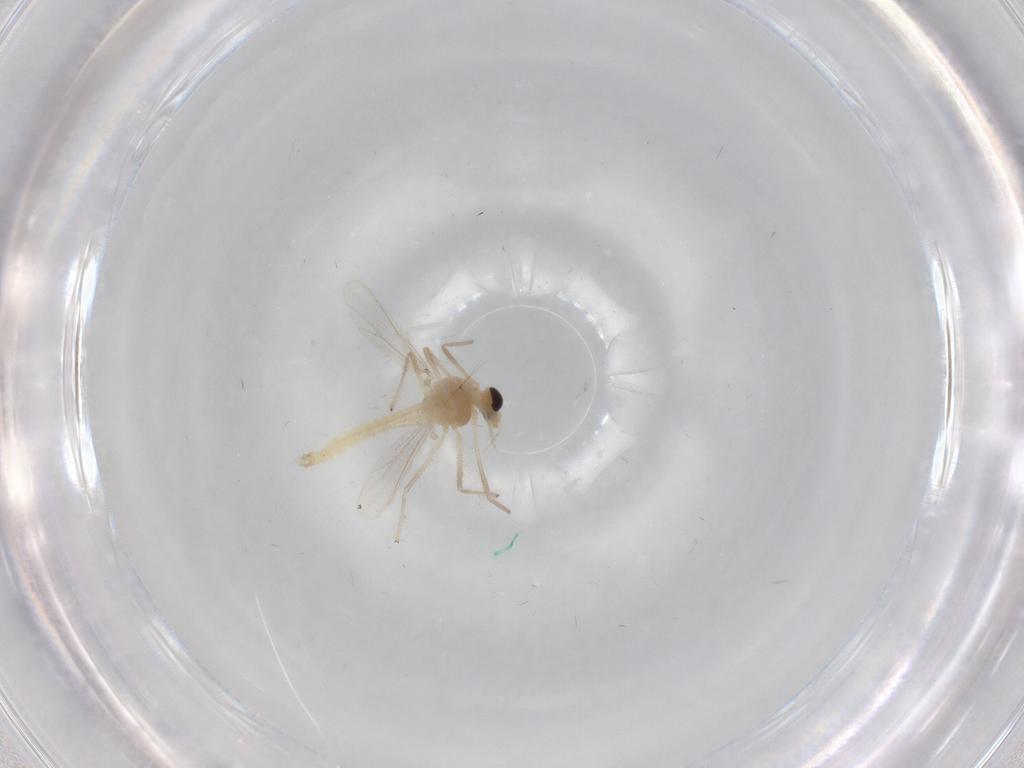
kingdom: Animalia
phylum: Arthropoda
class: Insecta
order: Diptera
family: Chironomidae
